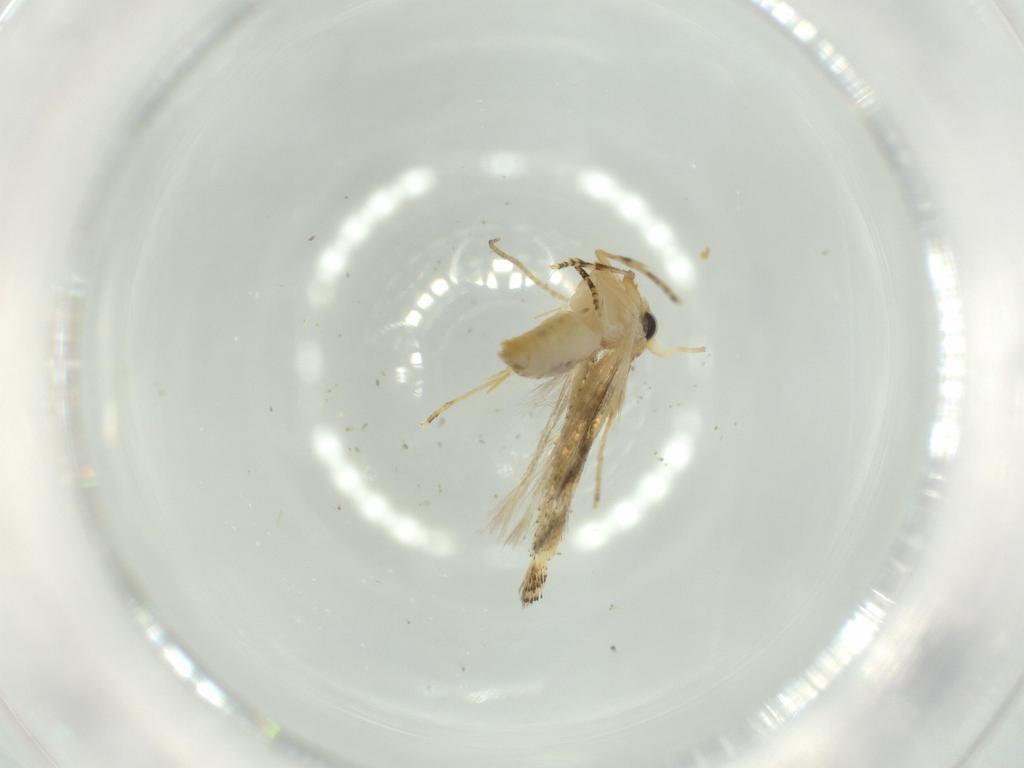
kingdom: Animalia
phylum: Arthropoda
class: Insecta
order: Lepidoptera
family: Bucculatricidae
